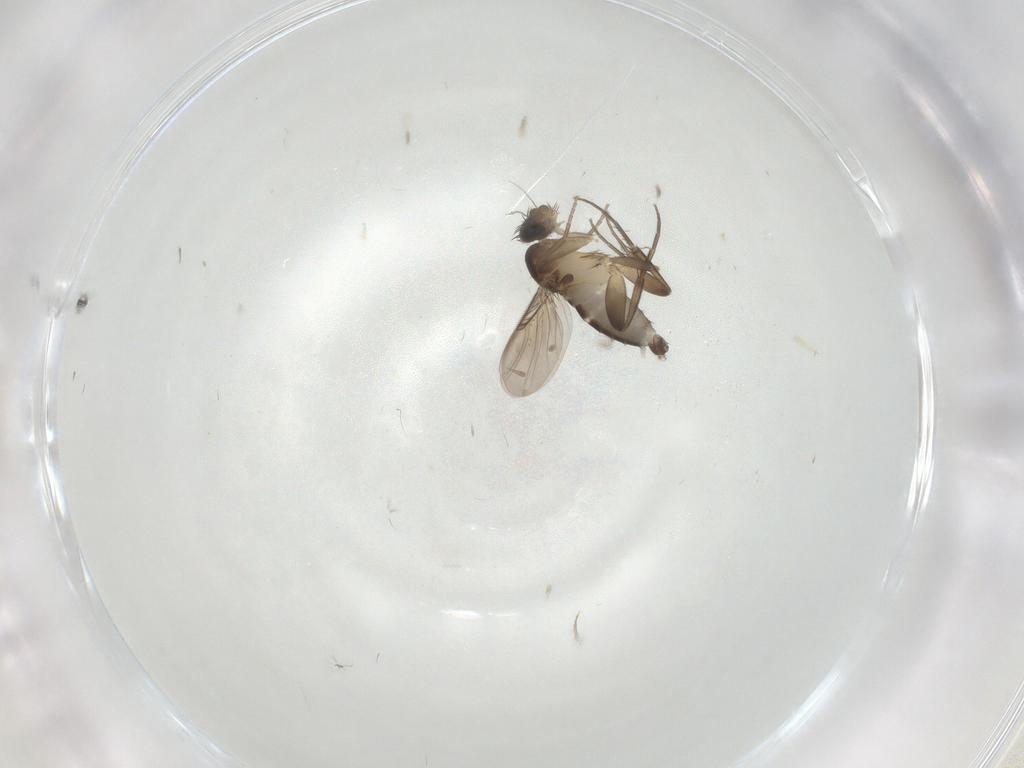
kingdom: Animalia
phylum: Arthropoda
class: Insecta
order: Diptera
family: Phoridae
